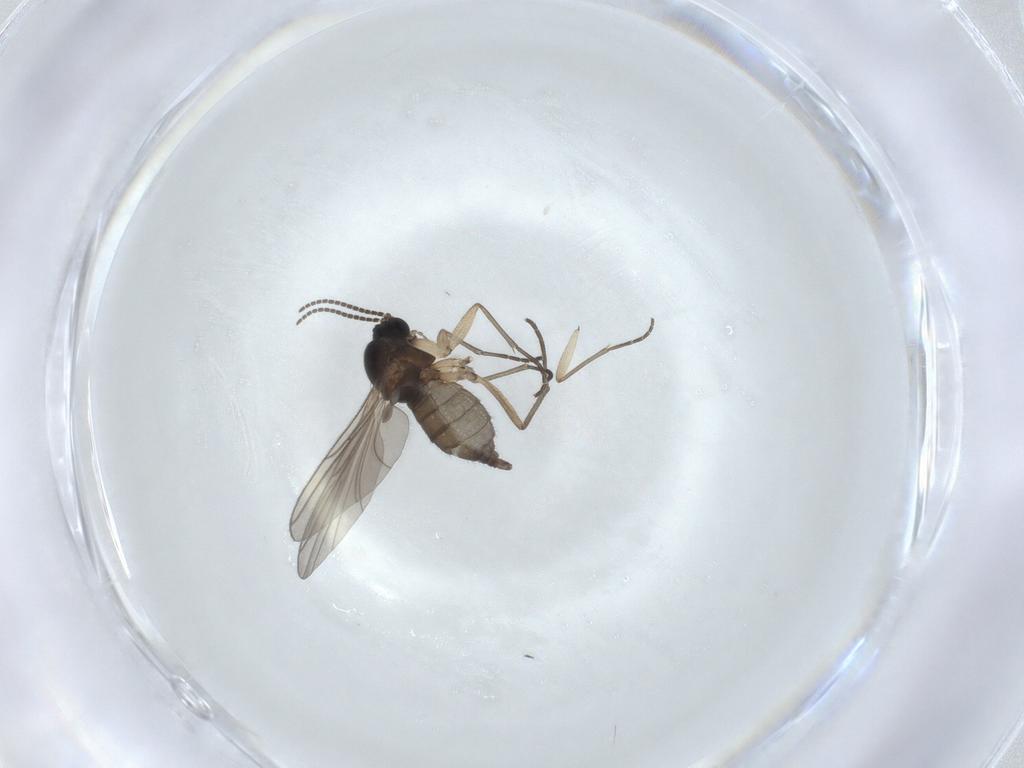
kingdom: Animalia
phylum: Arthropoda
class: Insecta
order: Diptera
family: Sciaridae
